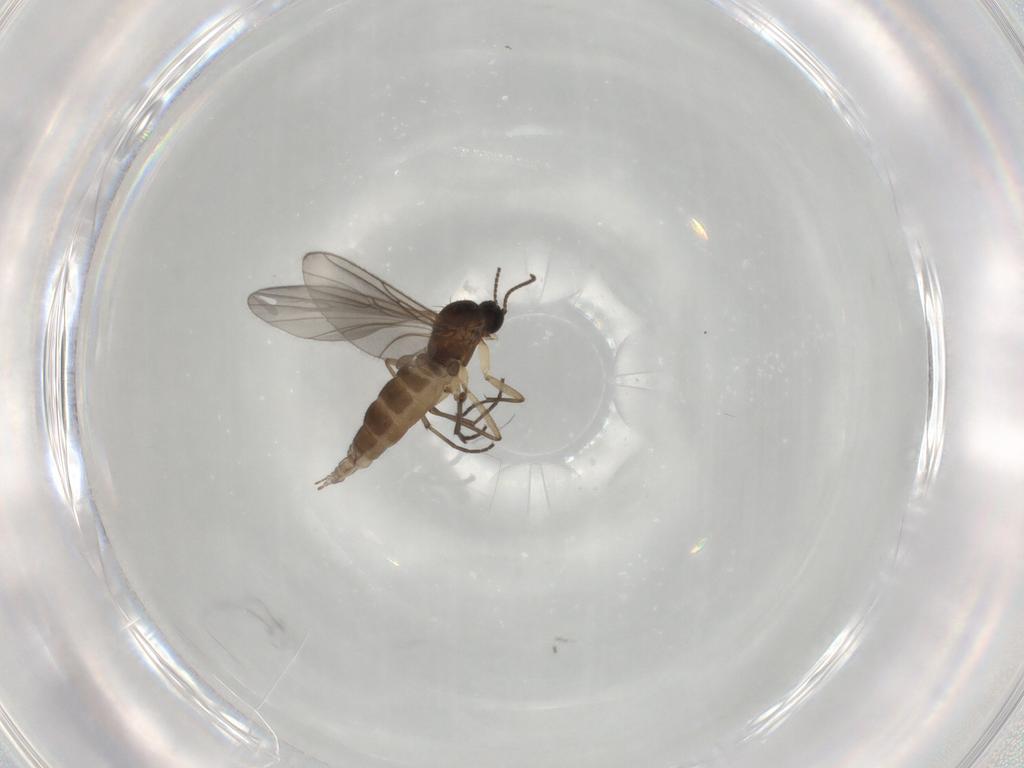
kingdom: Animalia
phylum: Arthropoda
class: Insecta
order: Diptera
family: Sciaridae
